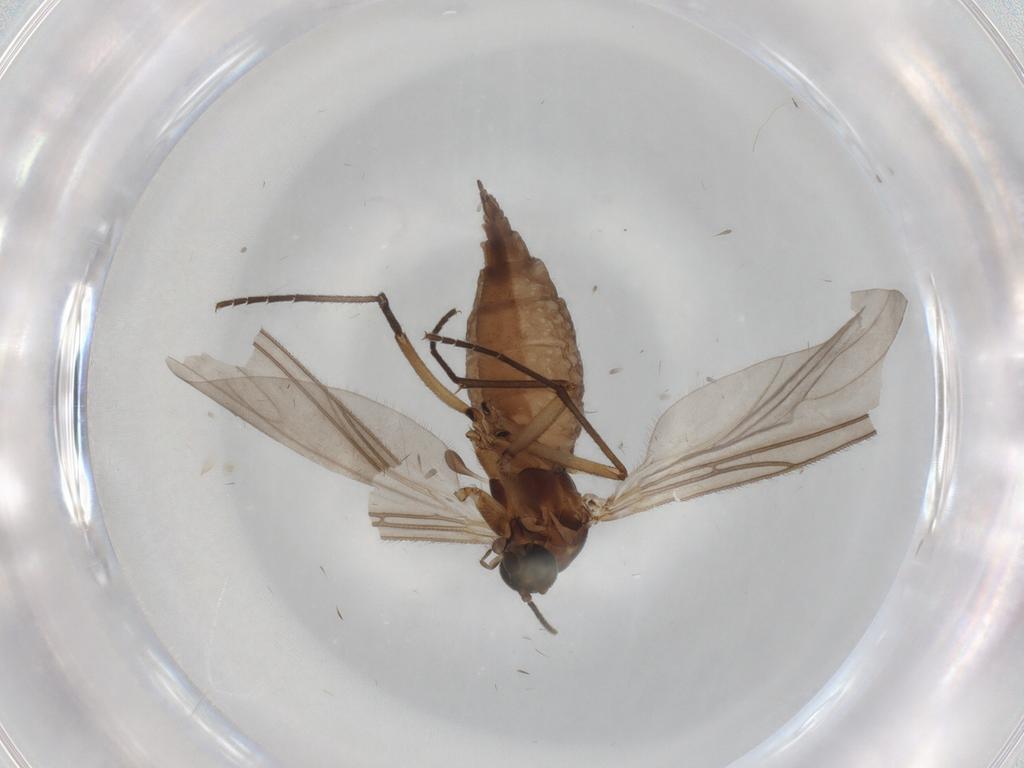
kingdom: Animalia
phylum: Arthropoda
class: Insecta
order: Diptera
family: Sciaridae
